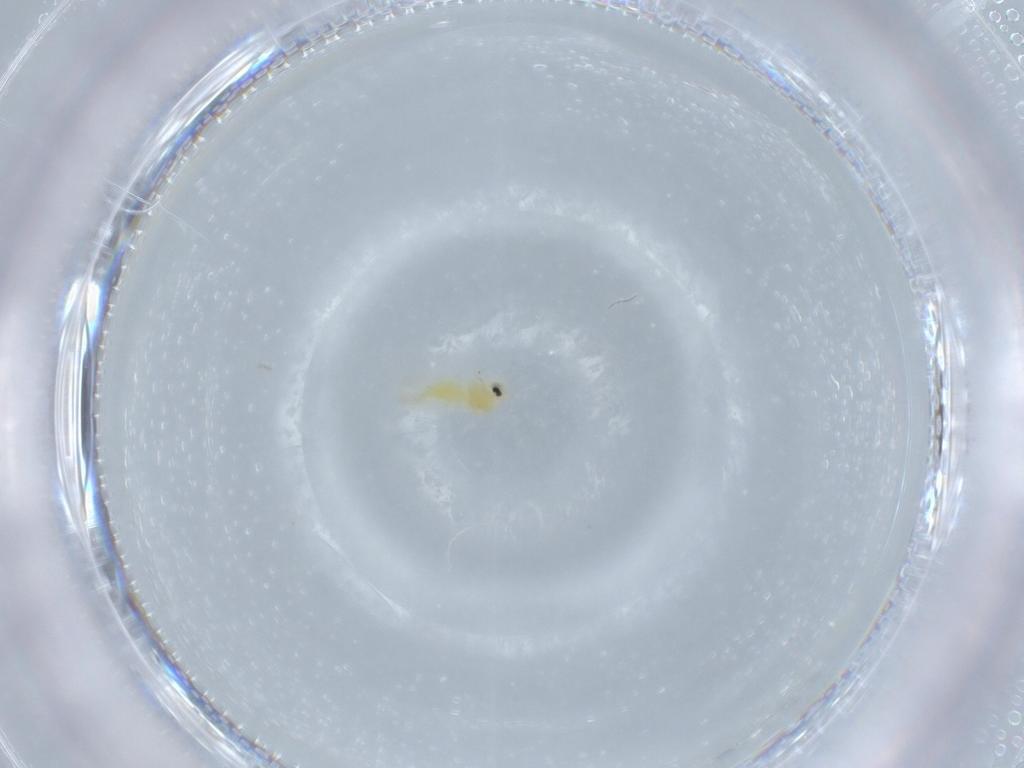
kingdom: Animalia
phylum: Arthropoda
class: Insecta
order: Hemiptera
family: Aleyrodidae
